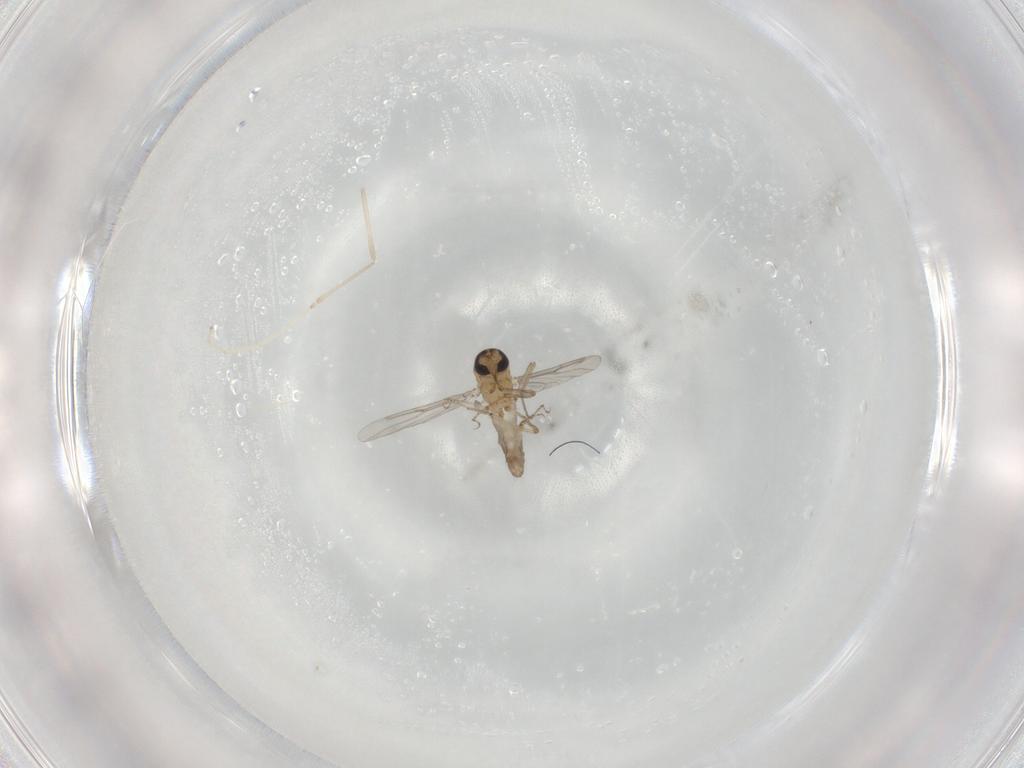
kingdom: Animalia
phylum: Arthropoda
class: Insecta
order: Diptera
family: Cecidomyiidae
